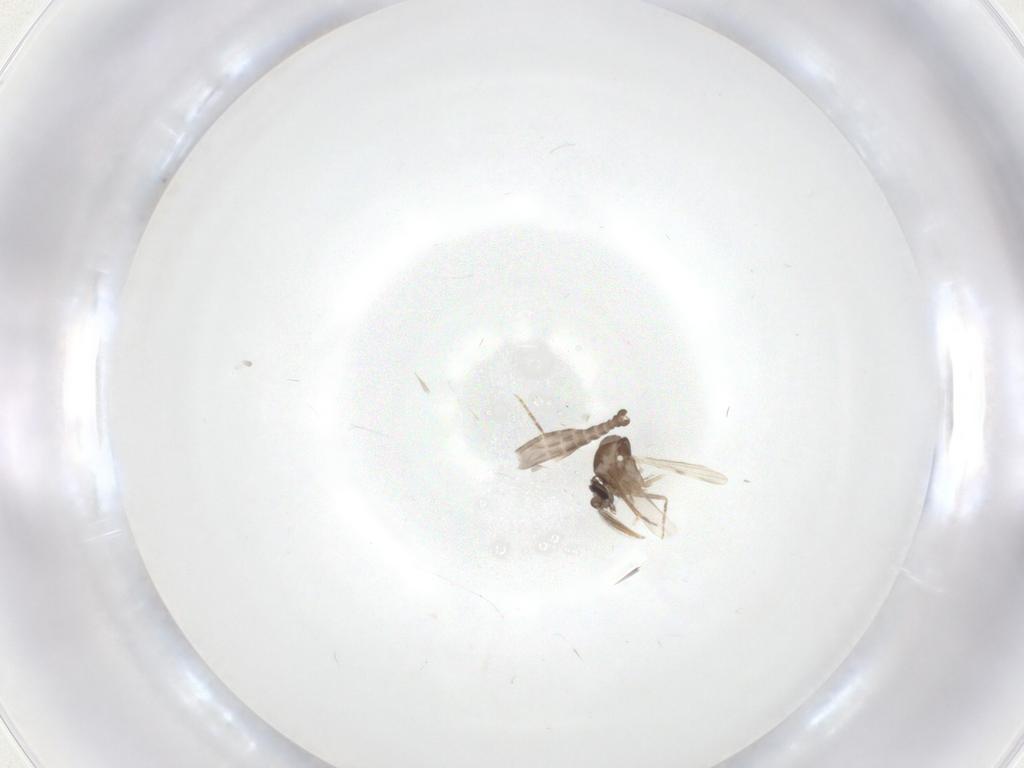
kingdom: Animalia
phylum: Arthropoda
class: Insecta
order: Diptera
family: Ceratopogonidae
